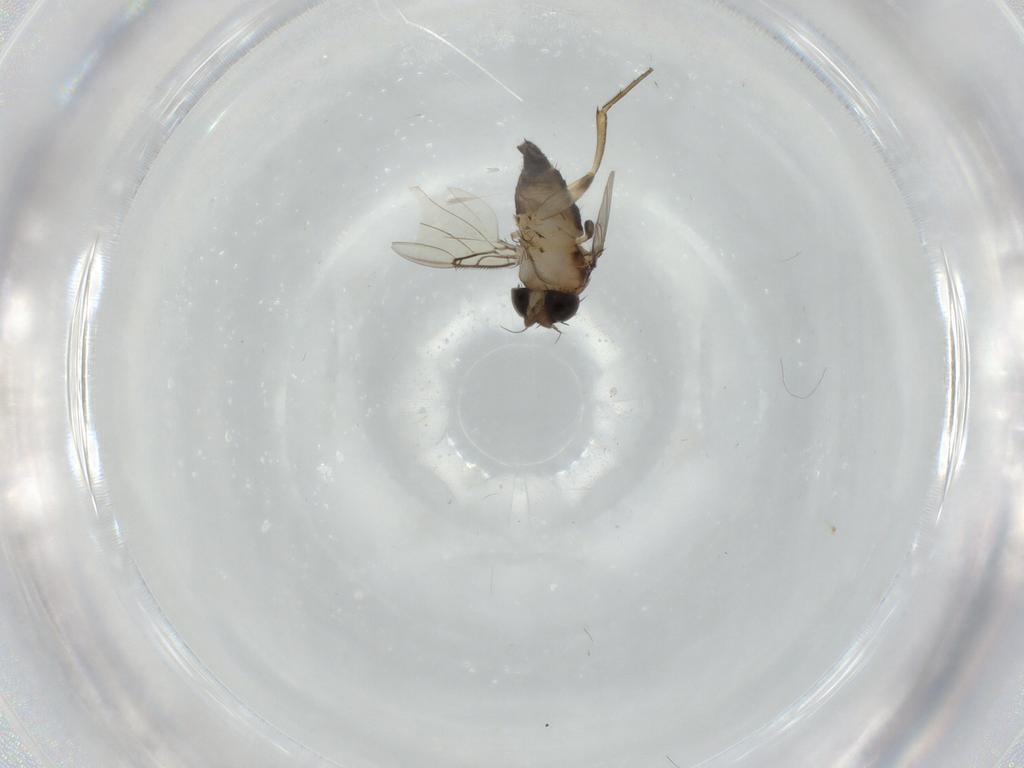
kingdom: Animalia
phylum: Arthropoda
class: Insecta
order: Diptera
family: Phoridae
